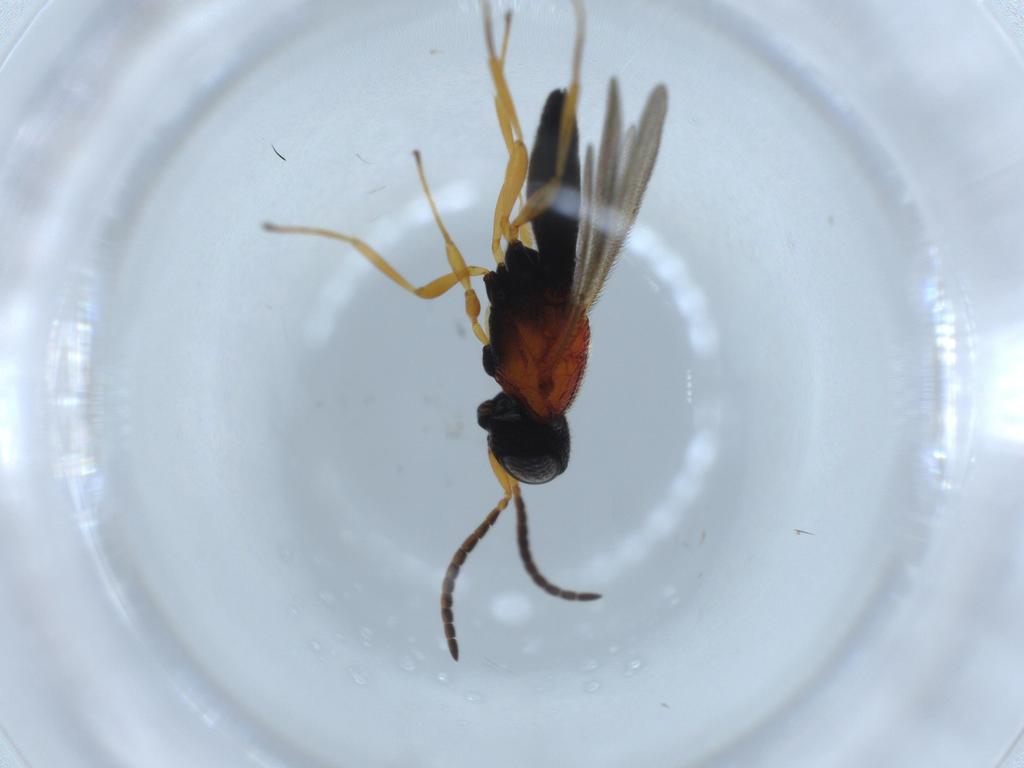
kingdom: Animalia
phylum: Arthropoda
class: Insecta
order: Hymenoptera
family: Scelionidae
